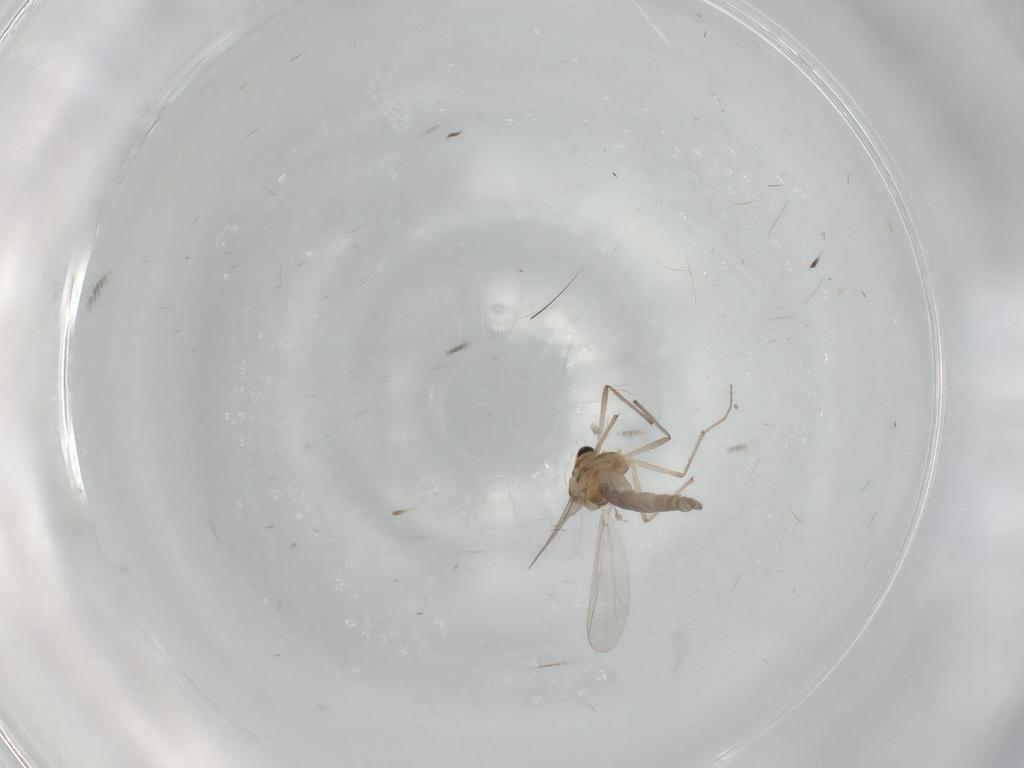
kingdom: Animalia
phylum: Arthropoda
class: Insecta
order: Diptera
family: Chironomidae
